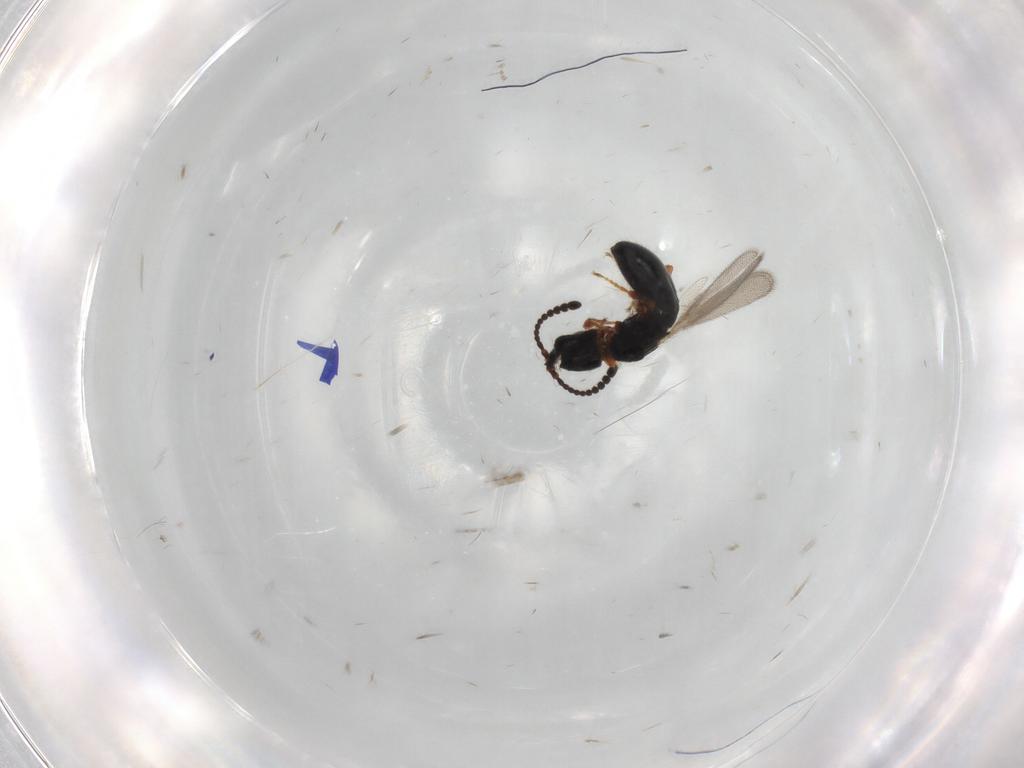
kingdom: Animalia
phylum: Arthropoda
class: Insecta
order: Hymenoptera
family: Diapriidae
